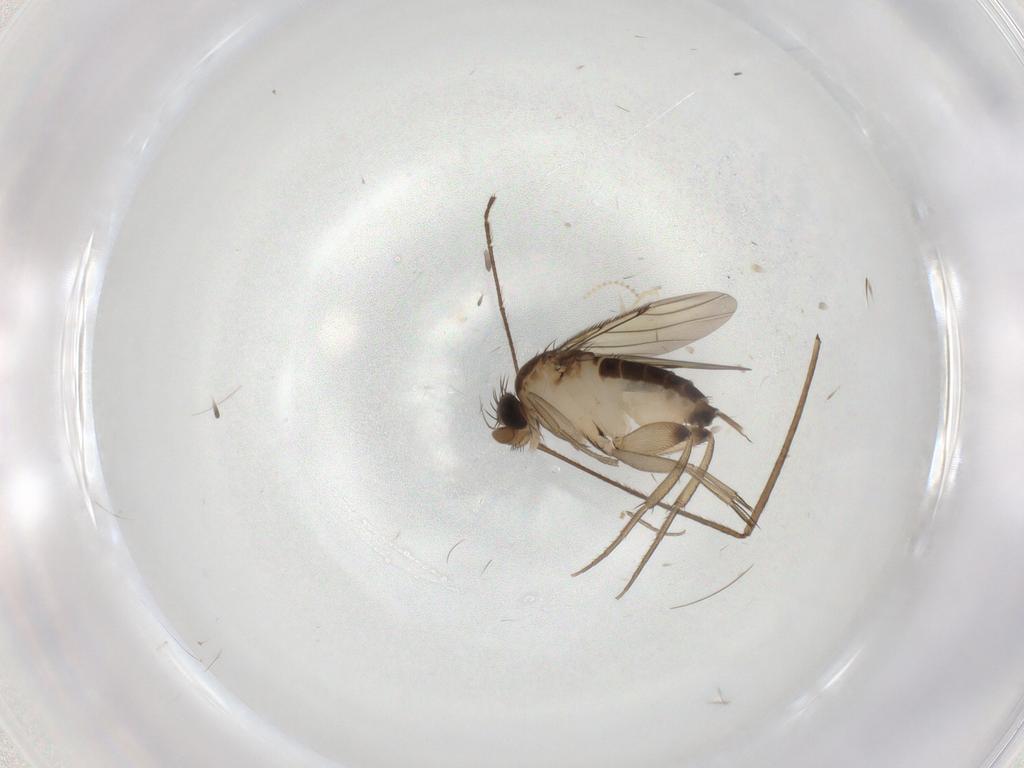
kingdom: Animalia
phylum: Arthropoda
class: Insecta
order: Diptera
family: Phoridae
